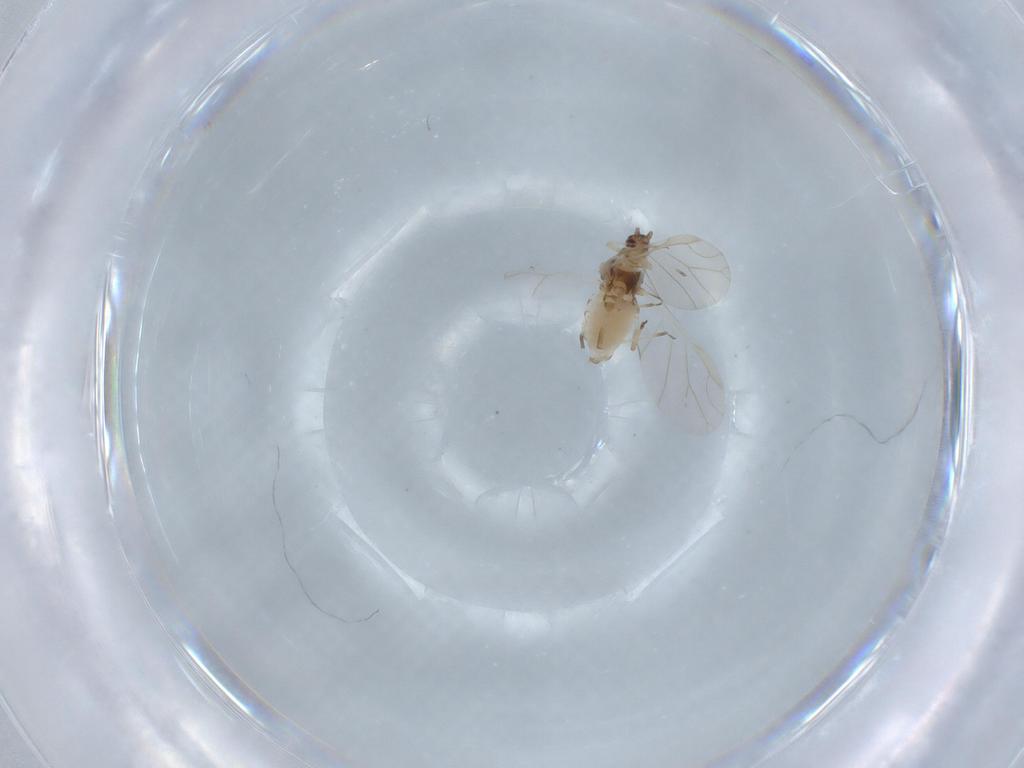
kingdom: Animalia
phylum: Arthropoda
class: Insecta
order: Hemiptera
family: Aphididae
